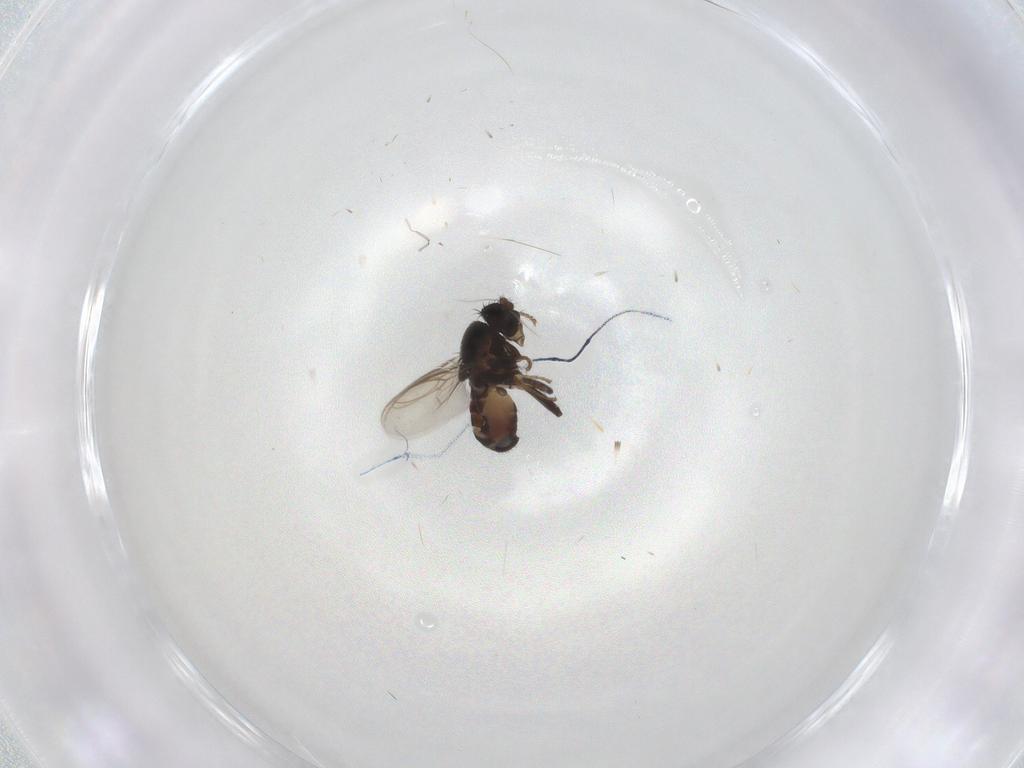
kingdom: Animalia
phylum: Arthropoda
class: Insecta
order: Diptera
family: Sphaeroceridae
